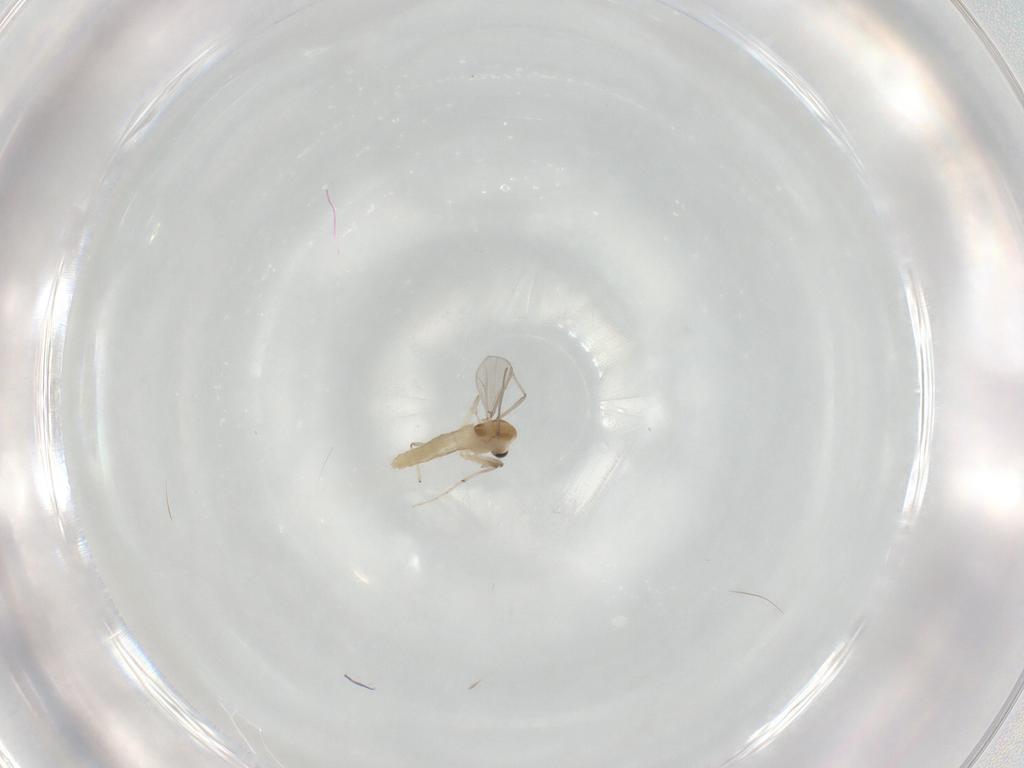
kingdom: Animalia
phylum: Arthropoda
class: Insecta
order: Diptera
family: Chironomidae
